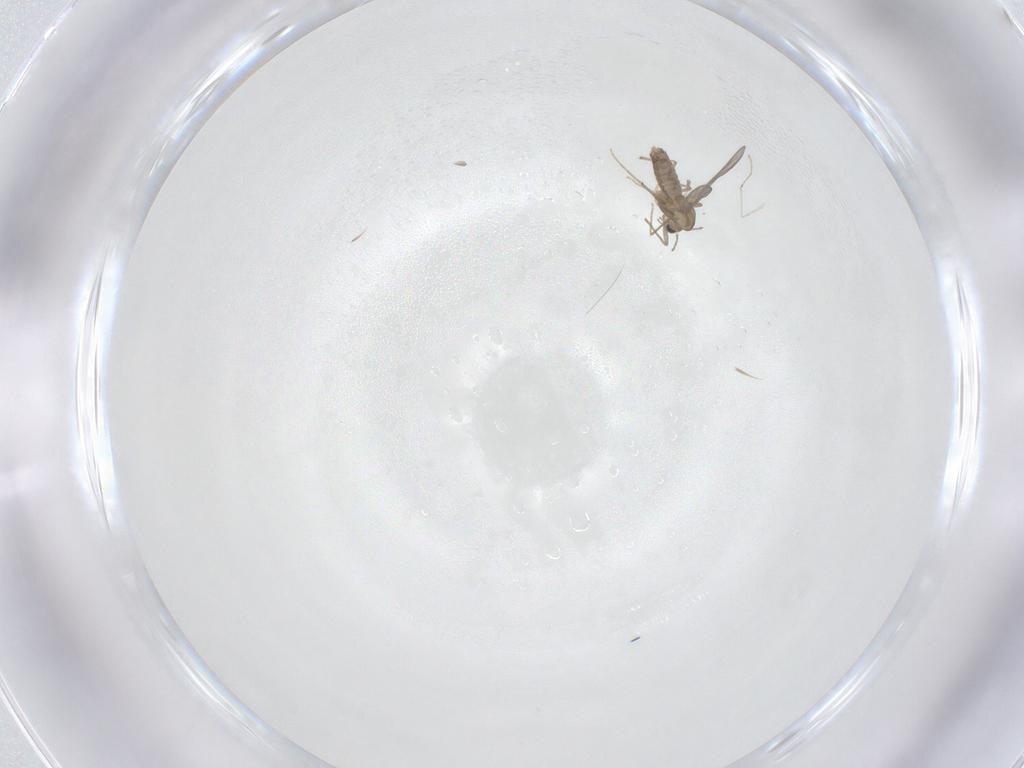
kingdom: Animalia
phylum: Arthropoda
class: Insecta
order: Diptera
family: Cecidomyiidae
